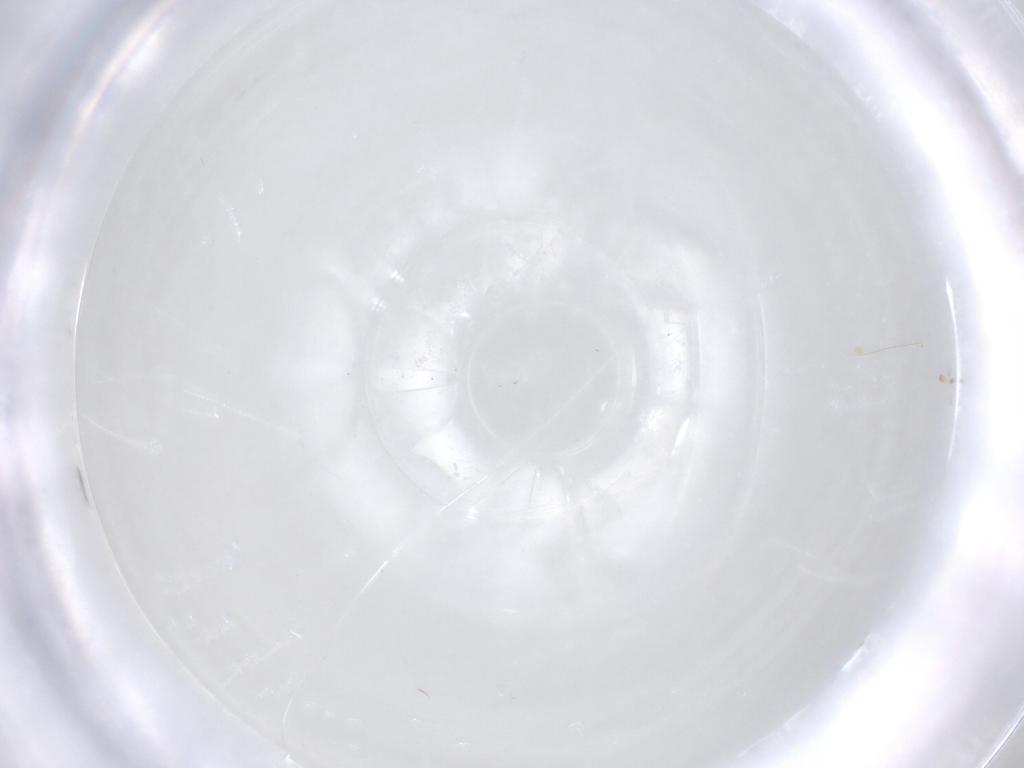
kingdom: Animalia
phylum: Arthropoda
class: Insecta
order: Diptera
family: Cecidomyiidae
